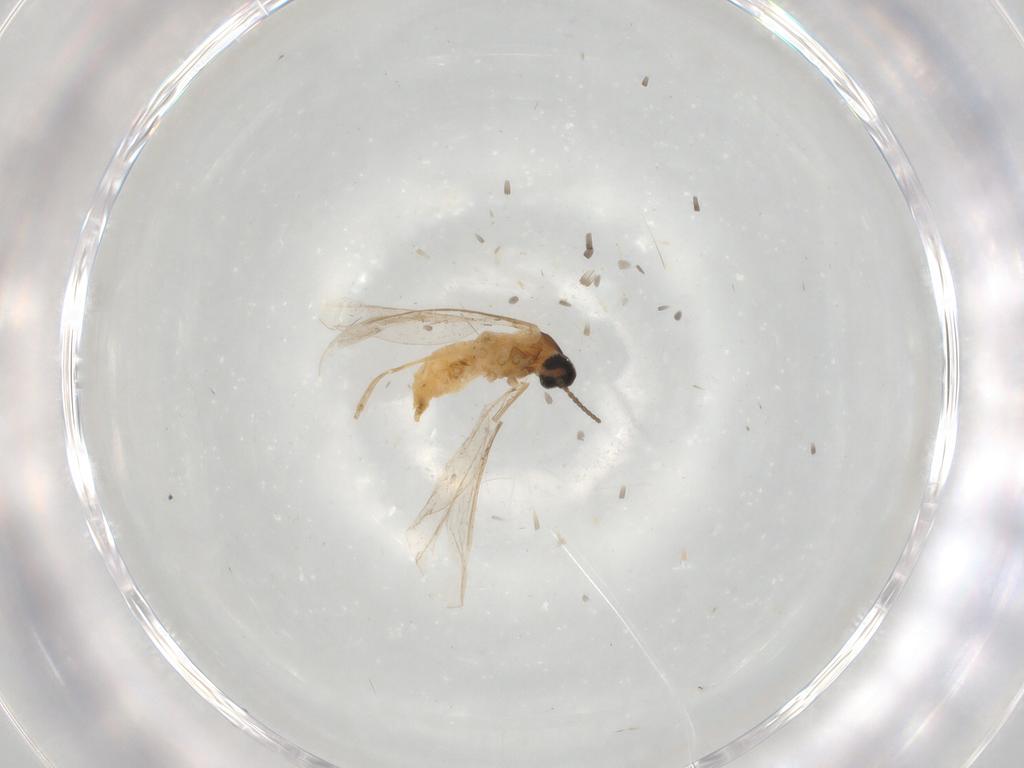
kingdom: Animalia
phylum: Arthropoda
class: Insecta
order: Diptera
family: Cecidomyiidae
